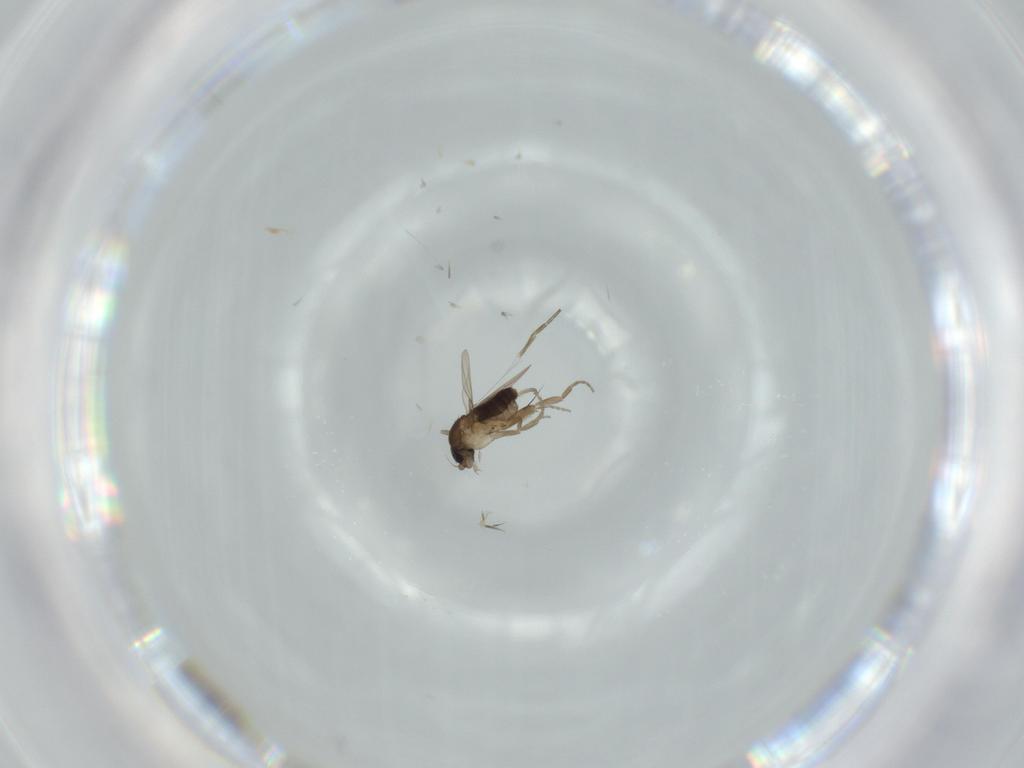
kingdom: Animalia
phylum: Arthropoda
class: Insecta
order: Diptera
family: Phoridae
